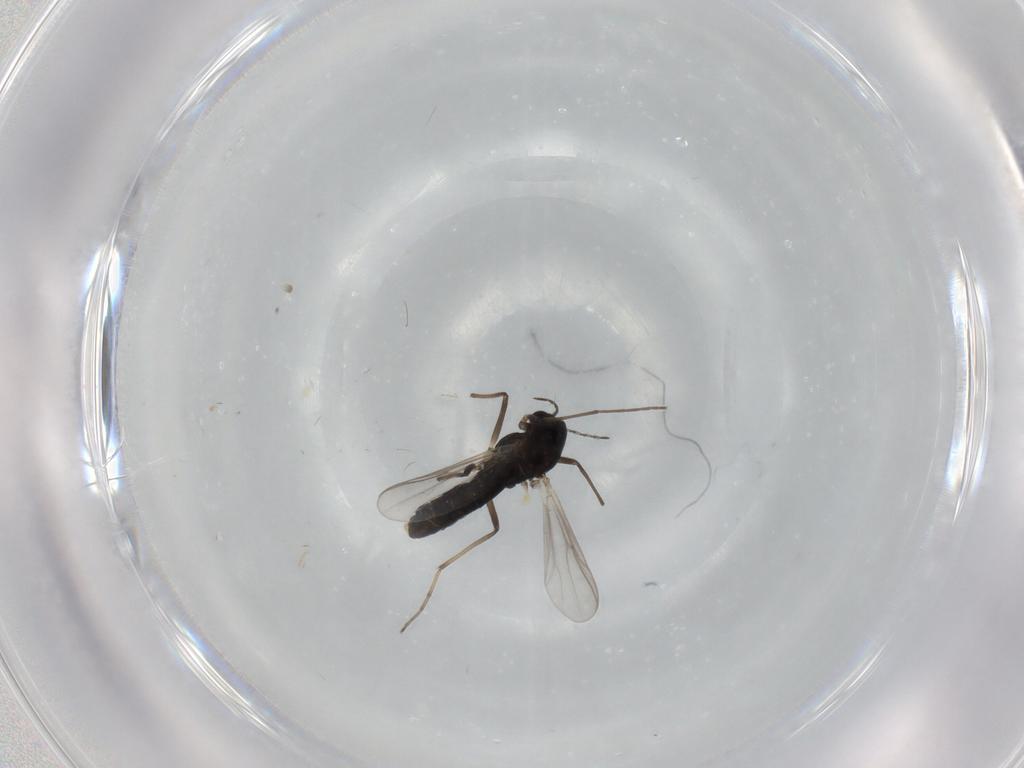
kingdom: Animalia
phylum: Arthropoda
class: Insecta
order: Diptera
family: Chironomidae
